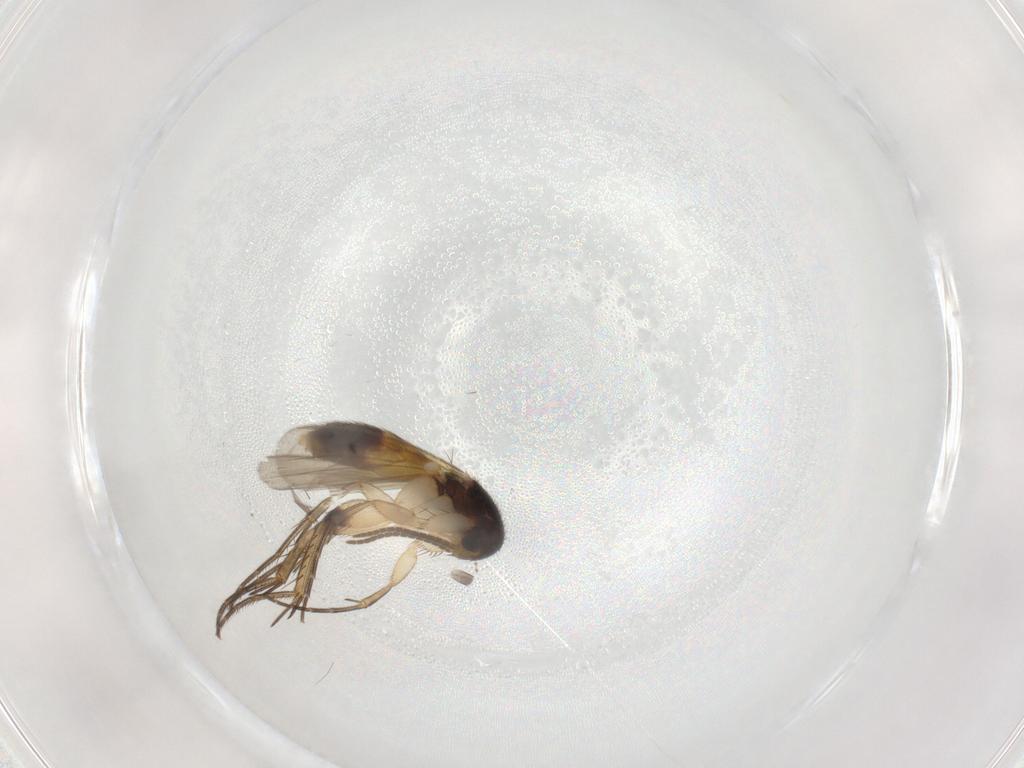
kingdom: Animalia
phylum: Arthropoda
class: Insecta
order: Diptera
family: Cecidomyiidae
